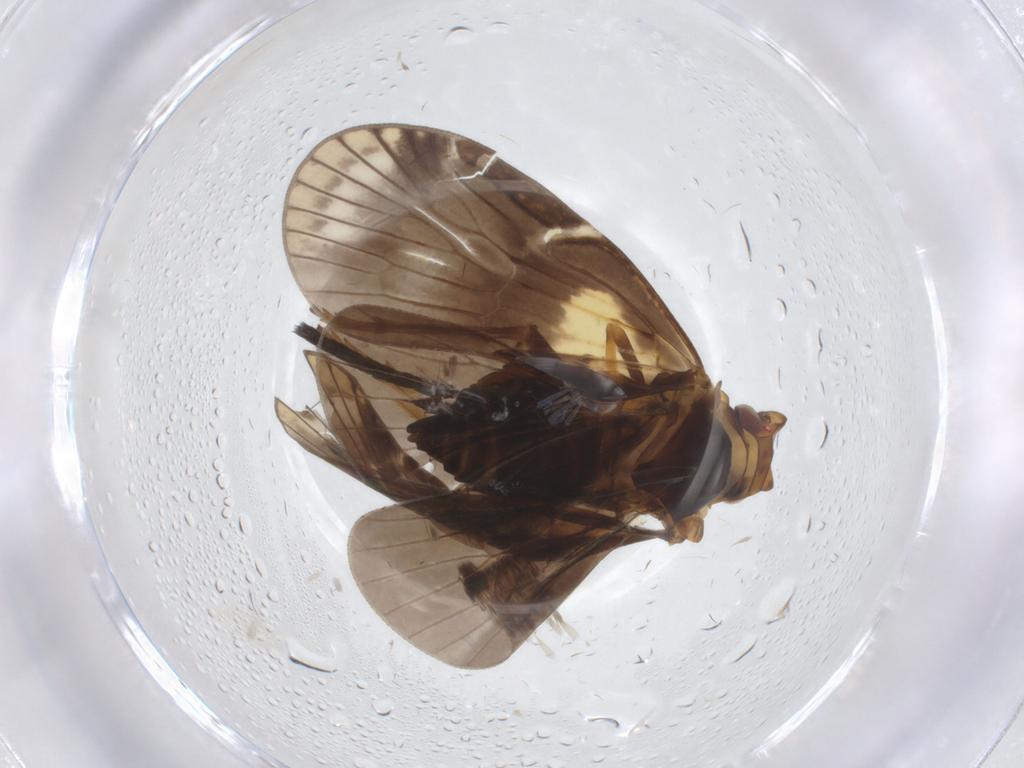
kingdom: Animalia
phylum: Arthropoda
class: Insecta
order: Hemiptera
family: Cixiidae
